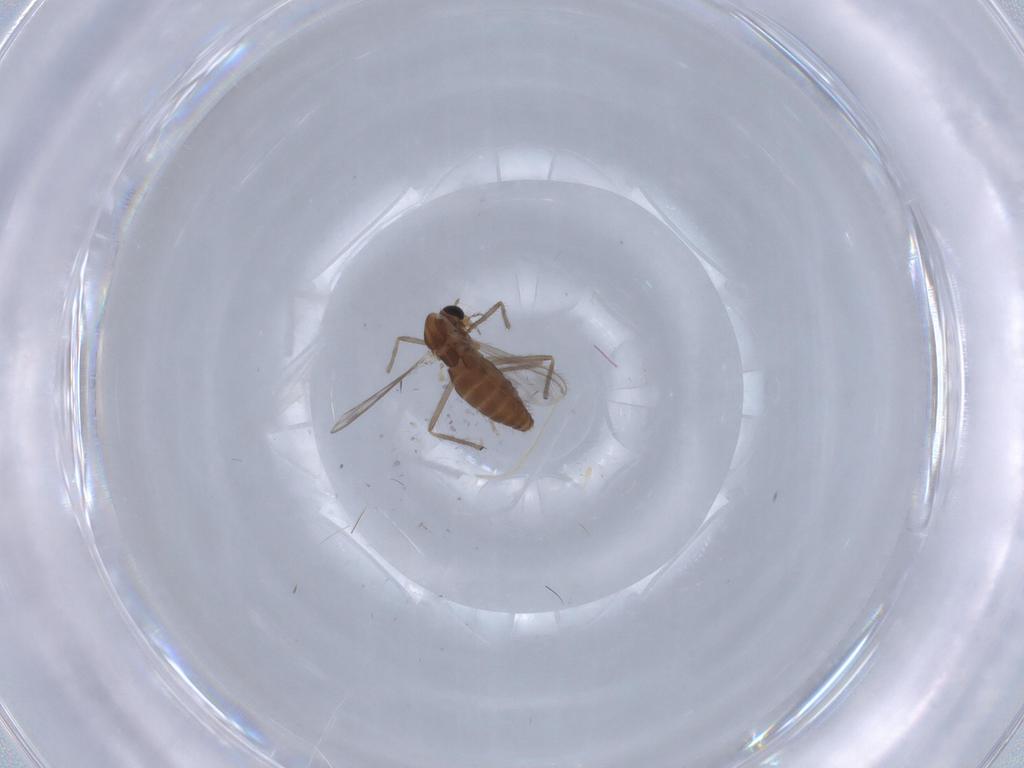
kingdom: Animalia
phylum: Arthropoda
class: Insecta
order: Diptera
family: Chironomidae
